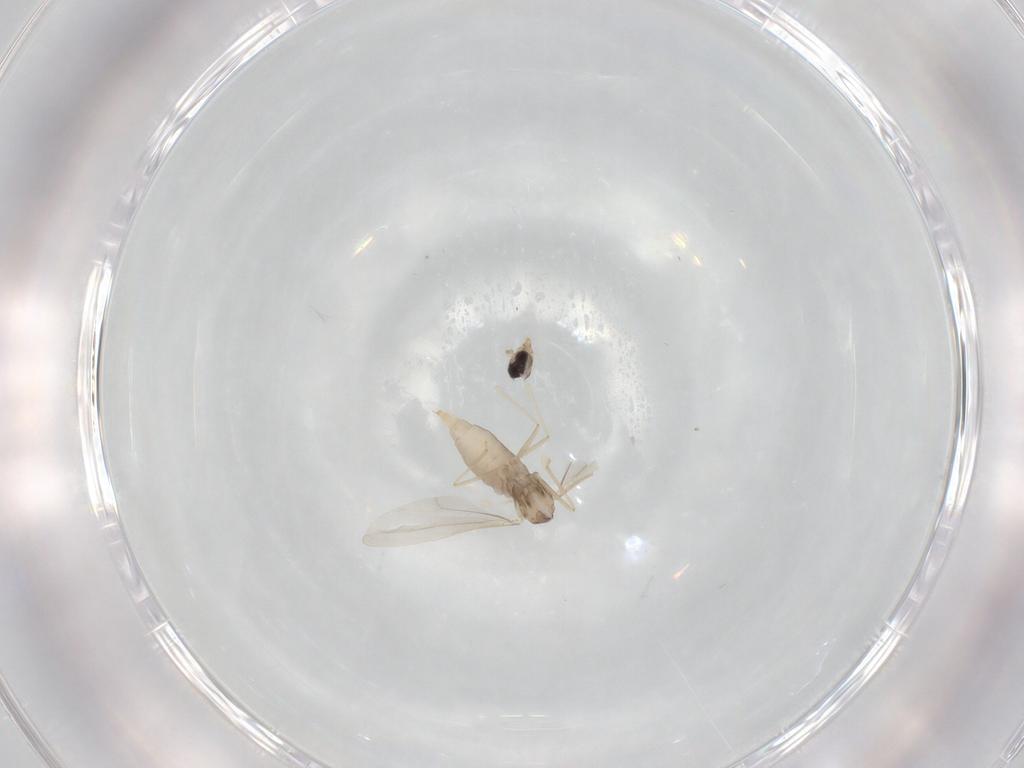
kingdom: Animalia
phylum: Arthropoda
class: Insecta
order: Diptera
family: Cecidomyiidae
